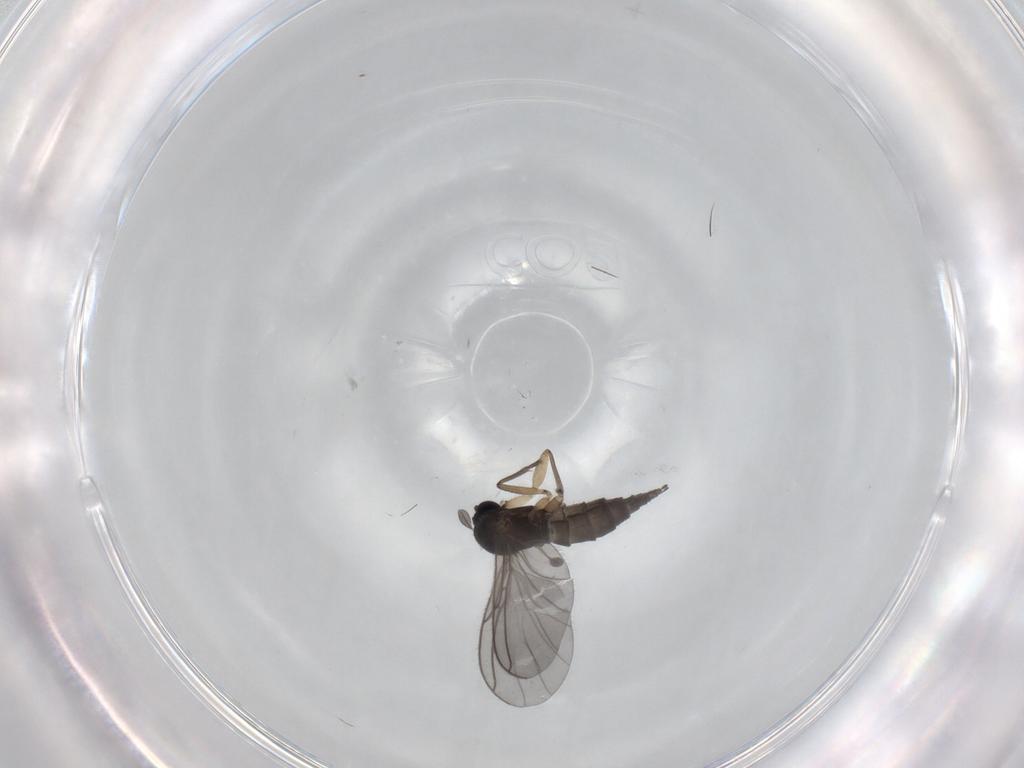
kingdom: Animalia
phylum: Arthropoda
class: Insecta
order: Diptera
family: Sciaridae
